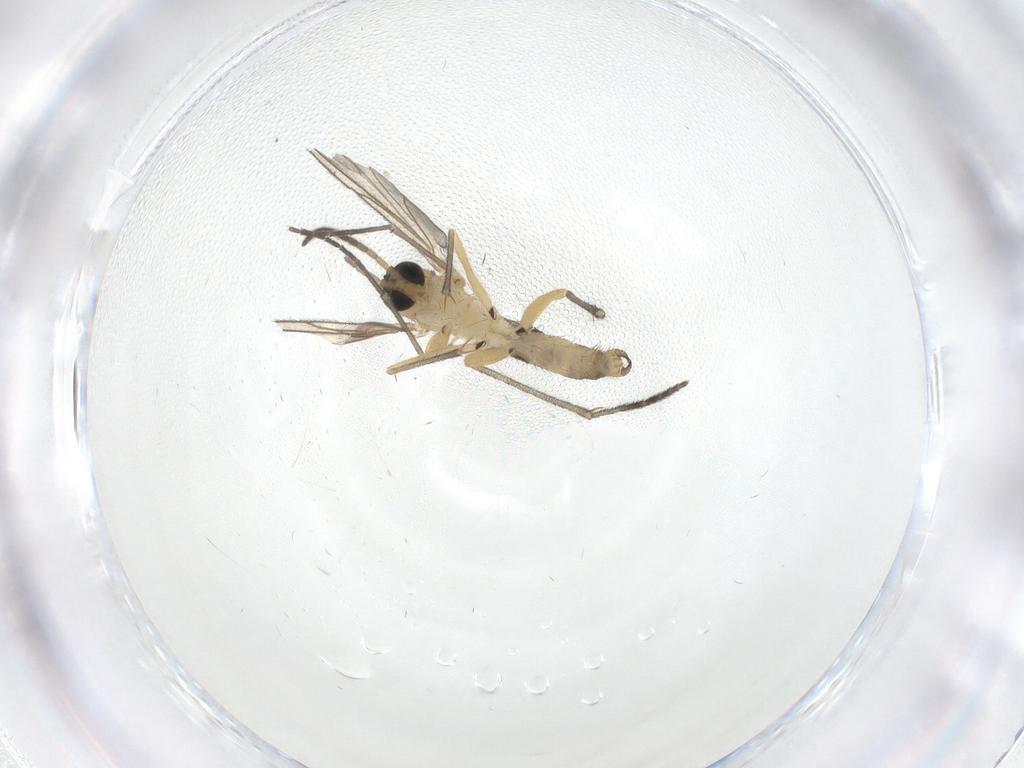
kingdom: Animalia
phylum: Arthropoda
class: Insecta
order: Diptera
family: Sciaridae
